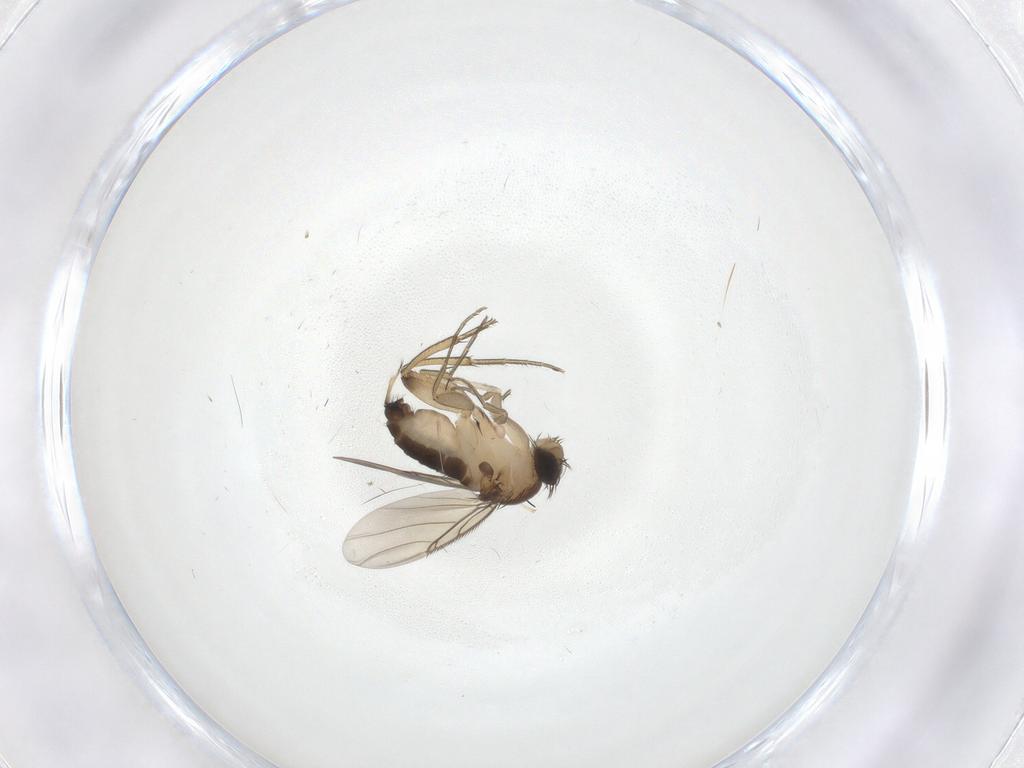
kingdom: Animalia
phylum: Arthropoda
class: Insecta
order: Diptera
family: Phoridae
